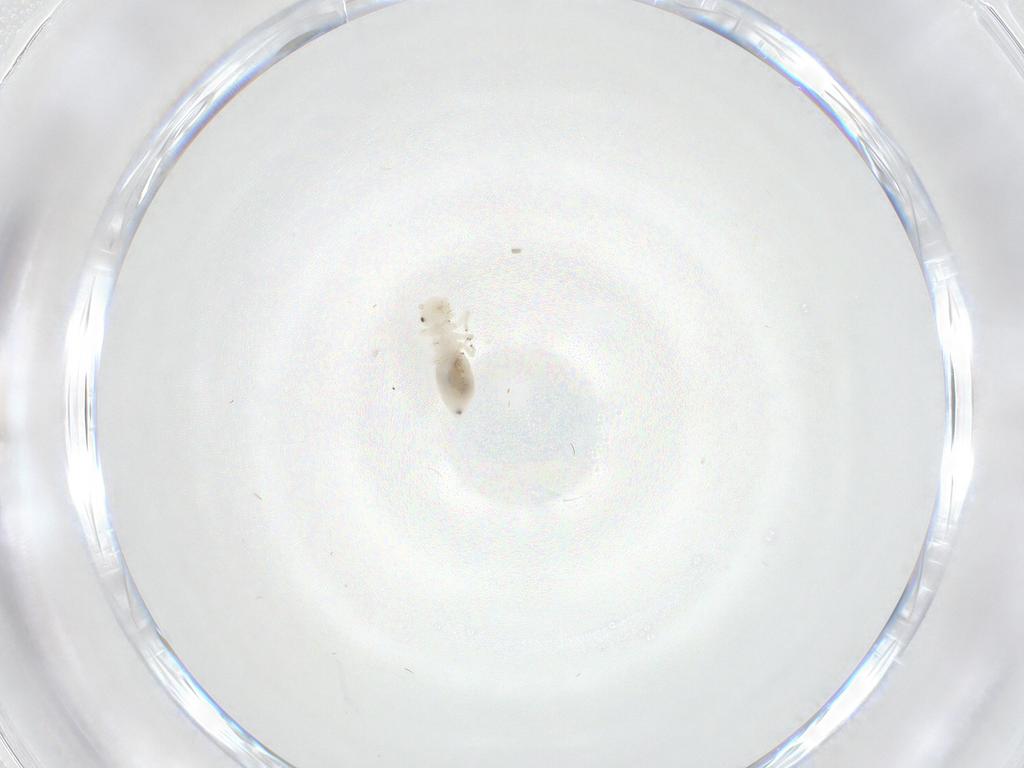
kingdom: Animalia
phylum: Arthropoda
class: Insecta
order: Psocodea
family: Caeciliusidae
